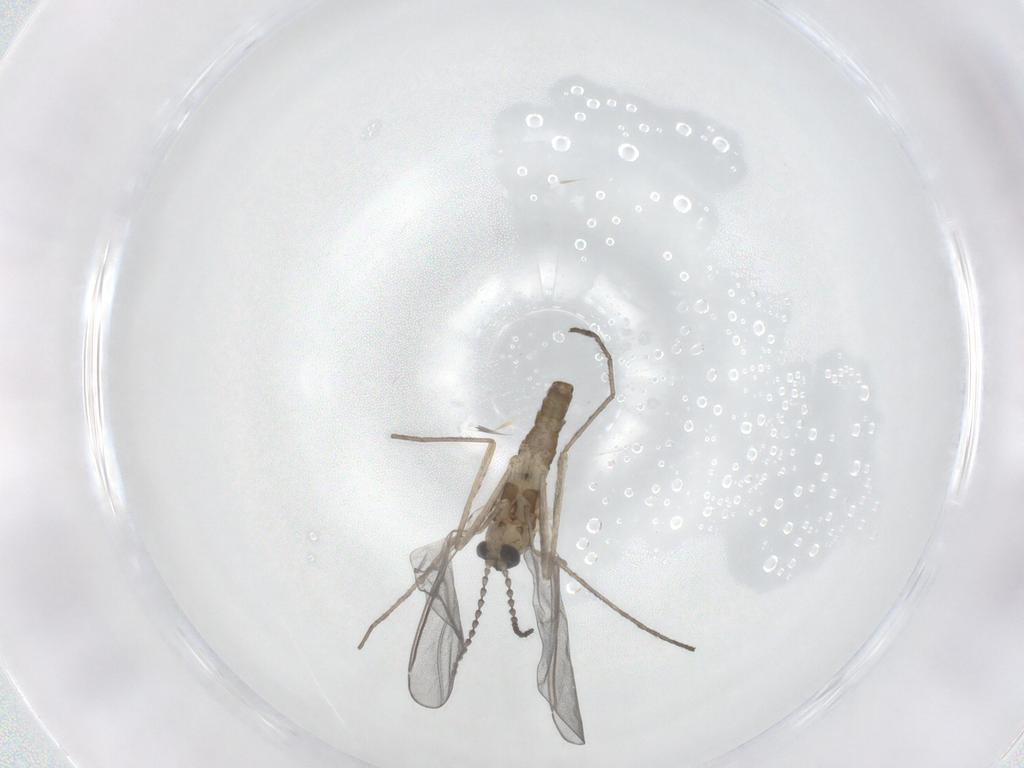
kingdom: Animalia
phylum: Arthropoda
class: Insecta
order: Diptera
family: Cecidomyiidae
